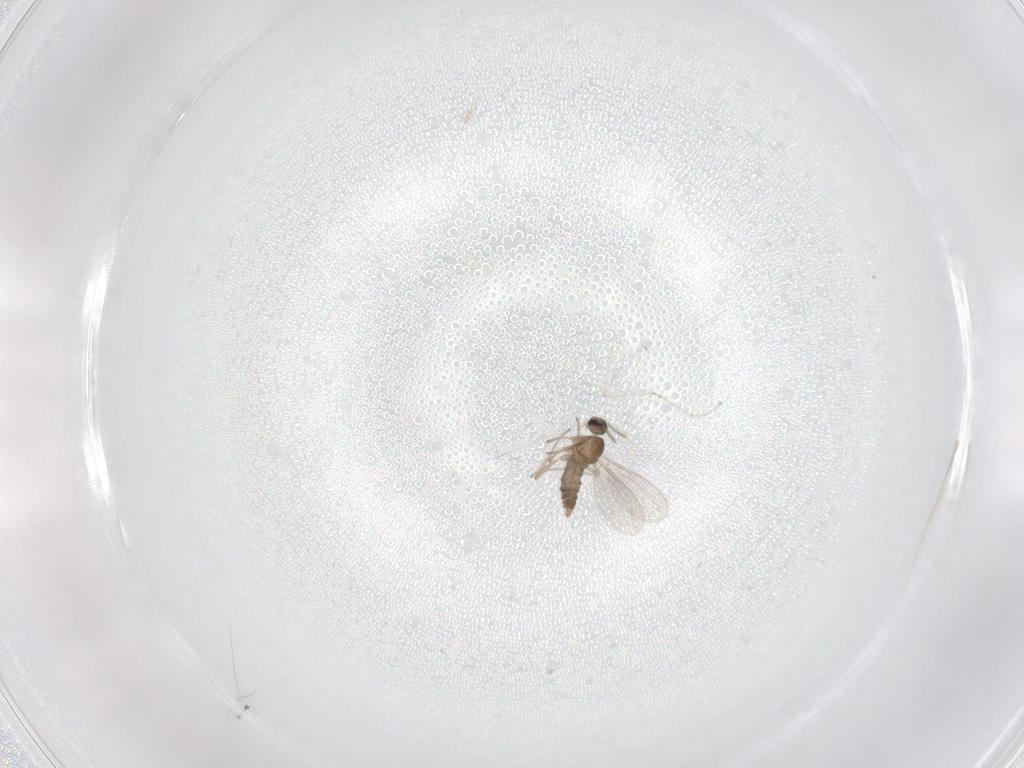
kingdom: Animalia
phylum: Arthropoda
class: Insecta
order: Diptera
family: Cecidomyiidae
